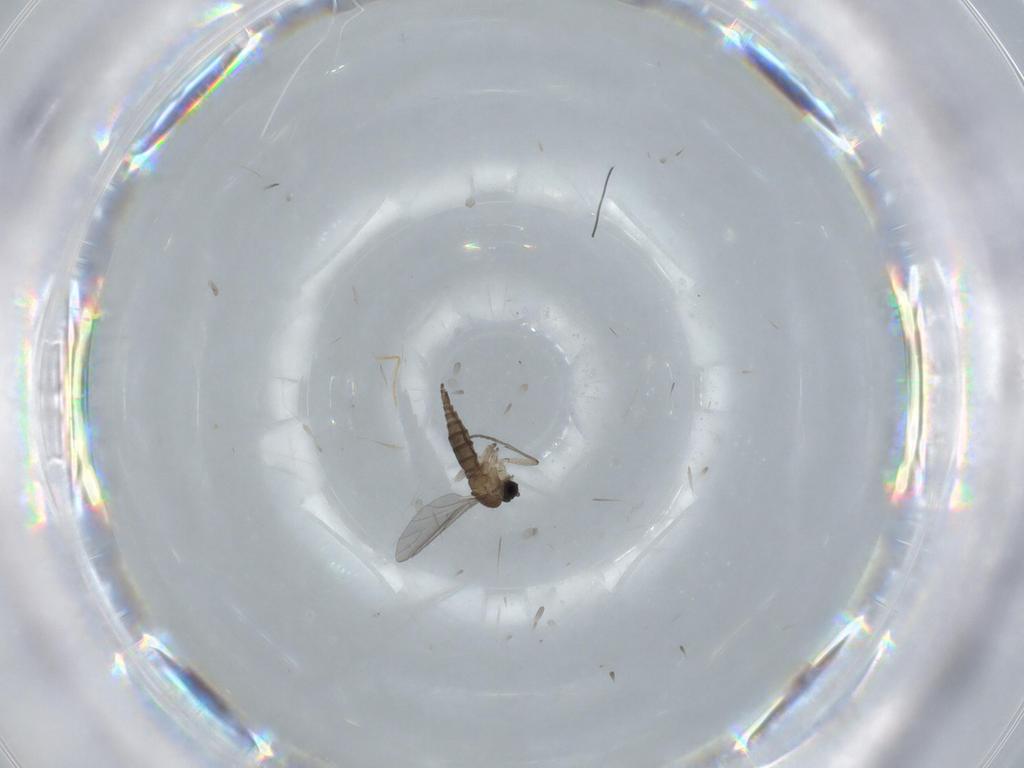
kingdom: Animalia
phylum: Arthropoda
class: Insecta
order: Diptera
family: Sciaridae
